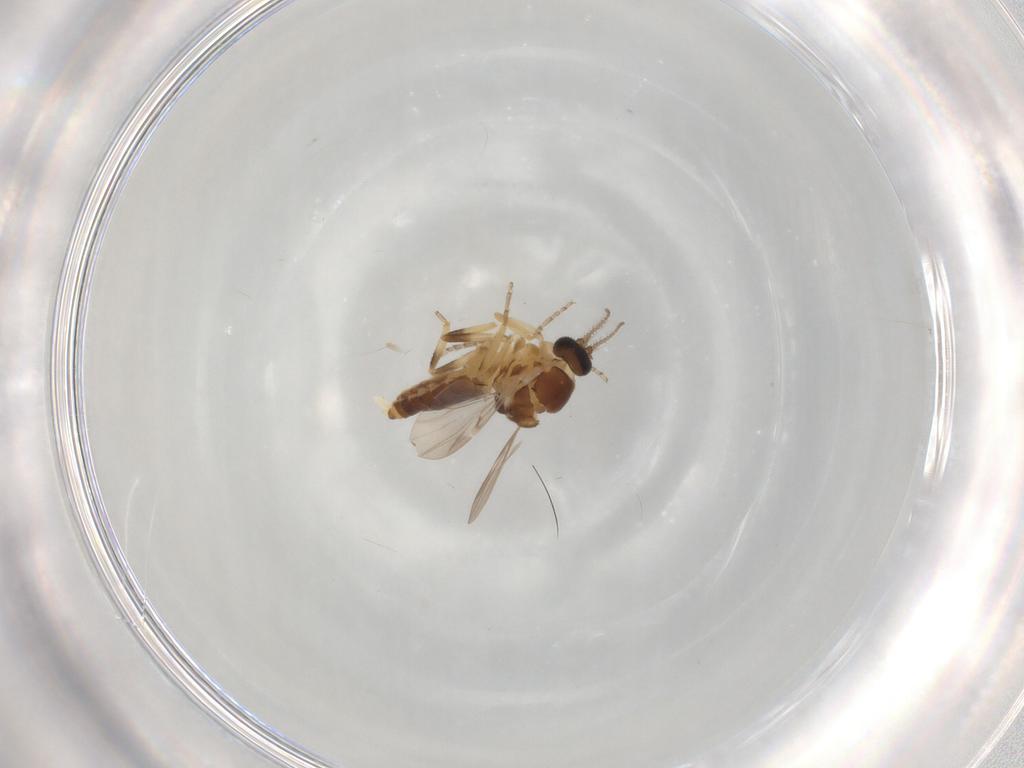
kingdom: Animalia
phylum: Arthropoda
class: Insecta
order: Diptera
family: Ceratopogonidae
